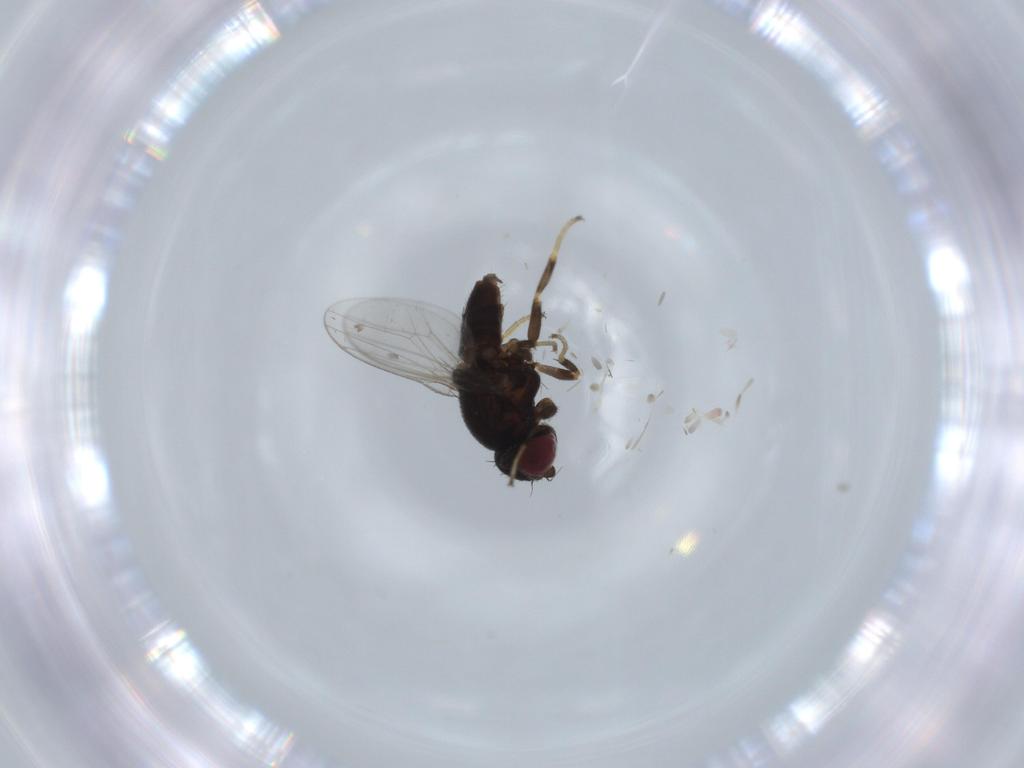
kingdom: Animalia
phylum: Arthropoda
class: Insecta
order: Diptera
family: Chloropidae
